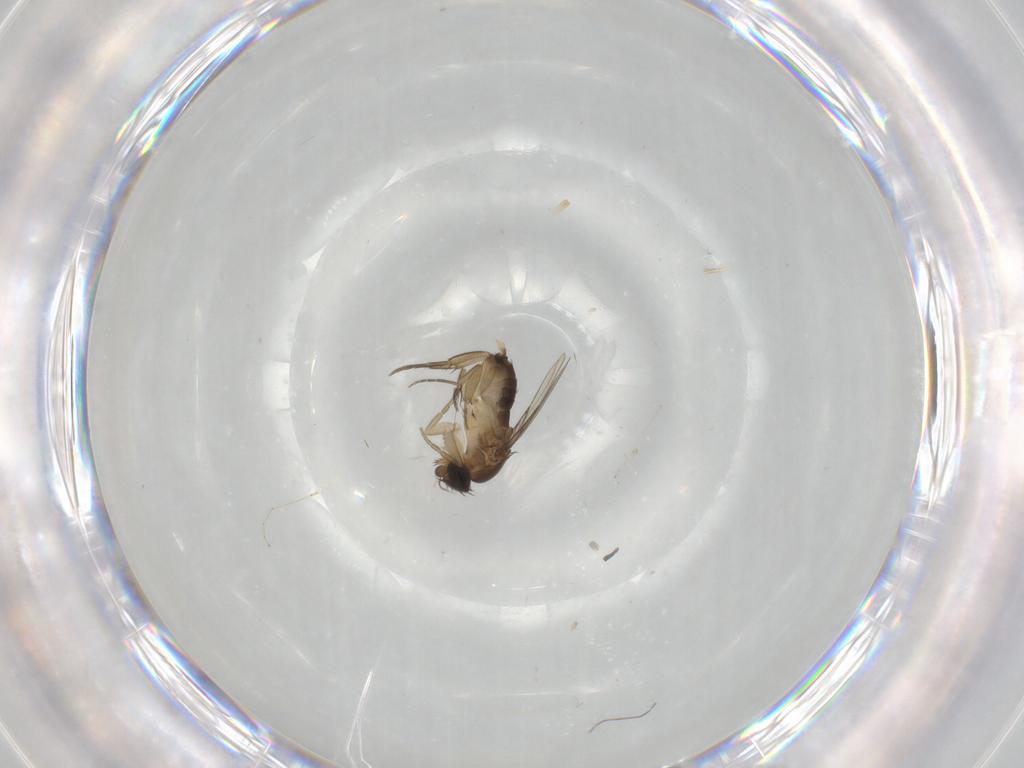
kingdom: Animalia
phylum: Arthropoda
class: Insecta
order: Diptera
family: Phoridae
